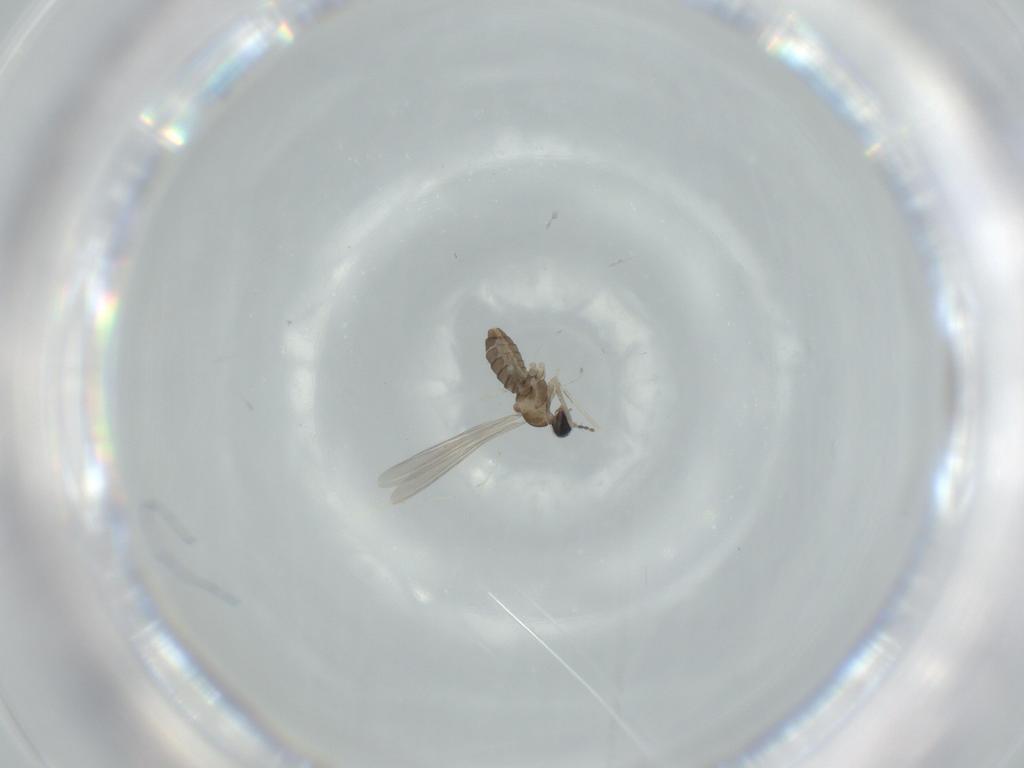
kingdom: Animalia
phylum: Arthropoda
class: Insecta
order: Diptera
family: Cecidomyiidae
